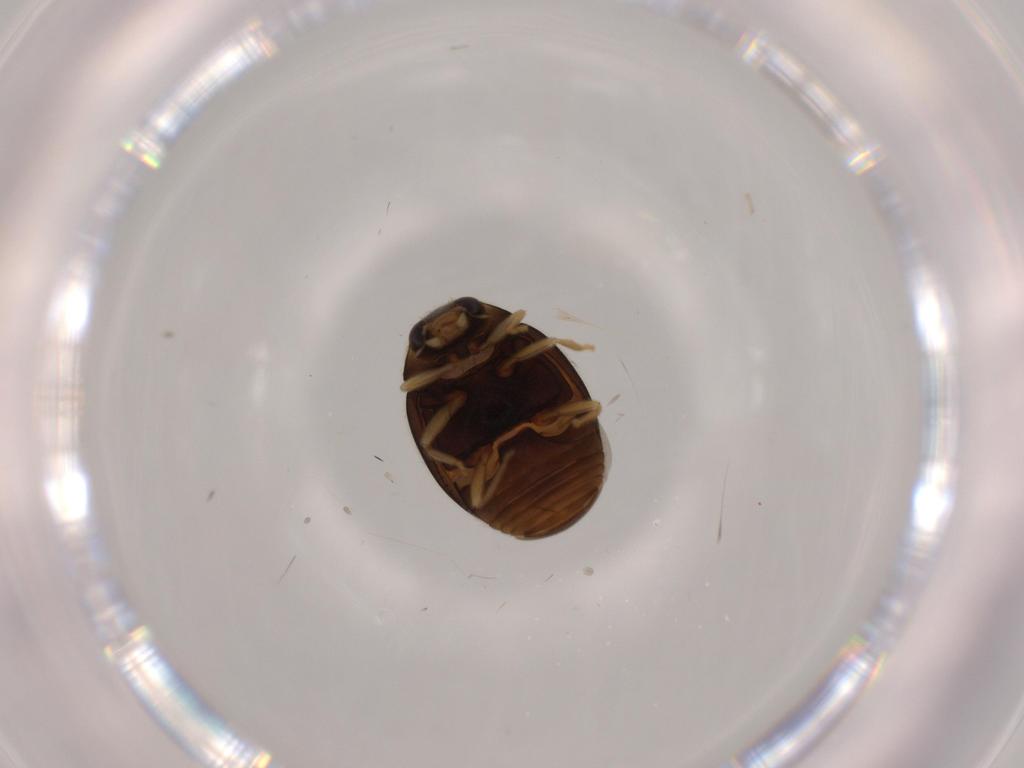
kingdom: Animalia
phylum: Arthropoda
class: Insecta
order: Coleoptera
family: Coccinellidae
